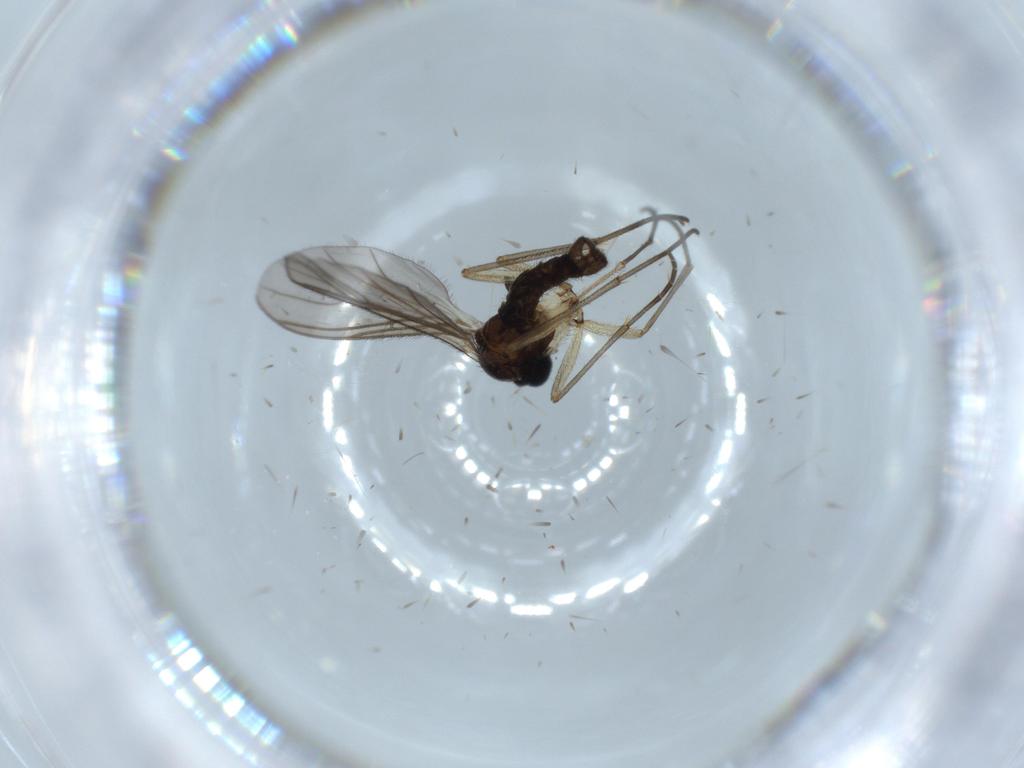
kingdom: Animalia
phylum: Arthropoda
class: Insecta
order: Diptera
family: Sciaridae
